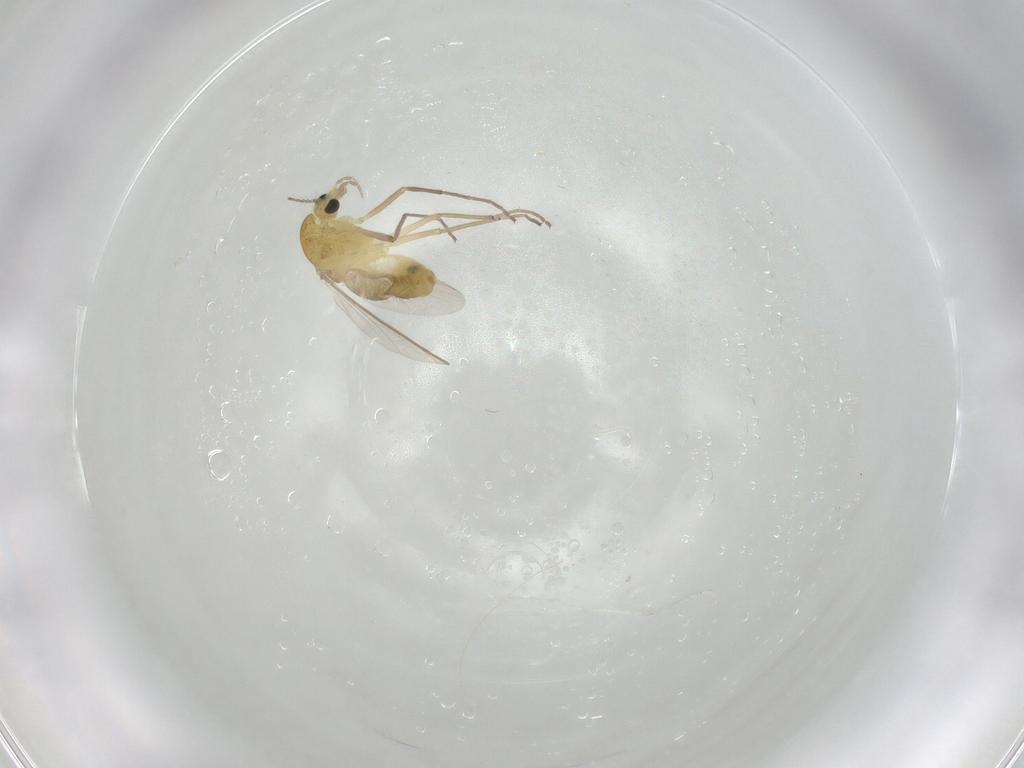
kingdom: Animalia
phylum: Arthropoda
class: Insecta
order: Diptera
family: Chironomidae
